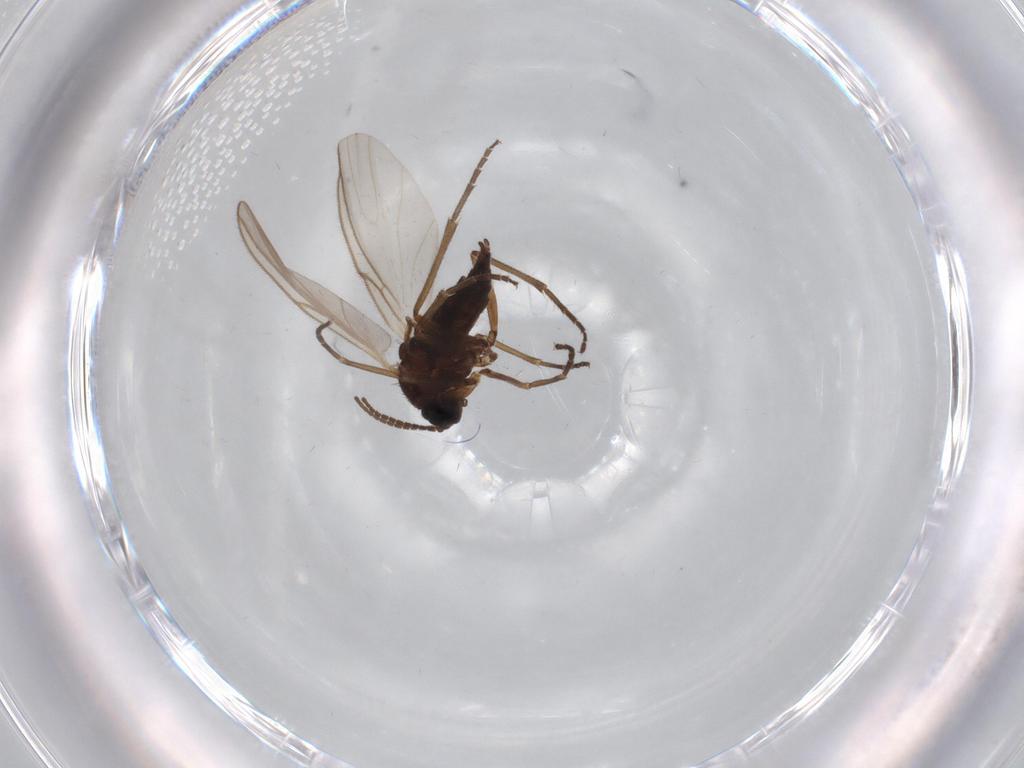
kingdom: Animalia
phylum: Arthropoda
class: Insecta
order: Diptera
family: Sciaridae
